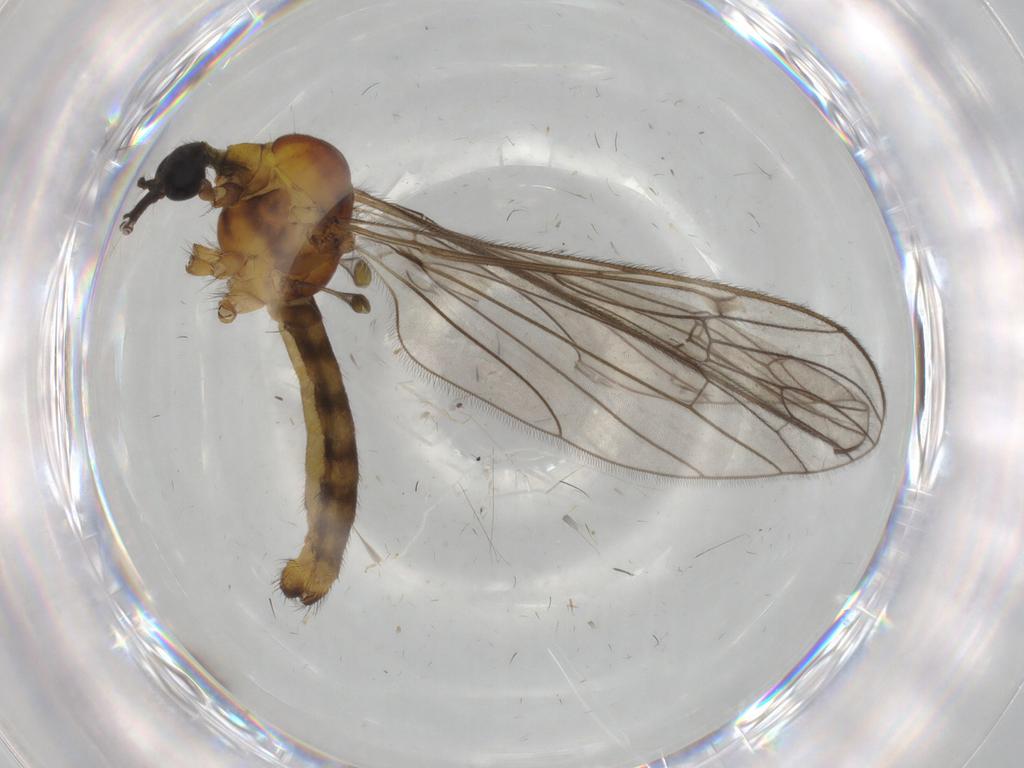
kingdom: Animalia
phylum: Arthropoda
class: Insecta
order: Diptera
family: Limoniidae
